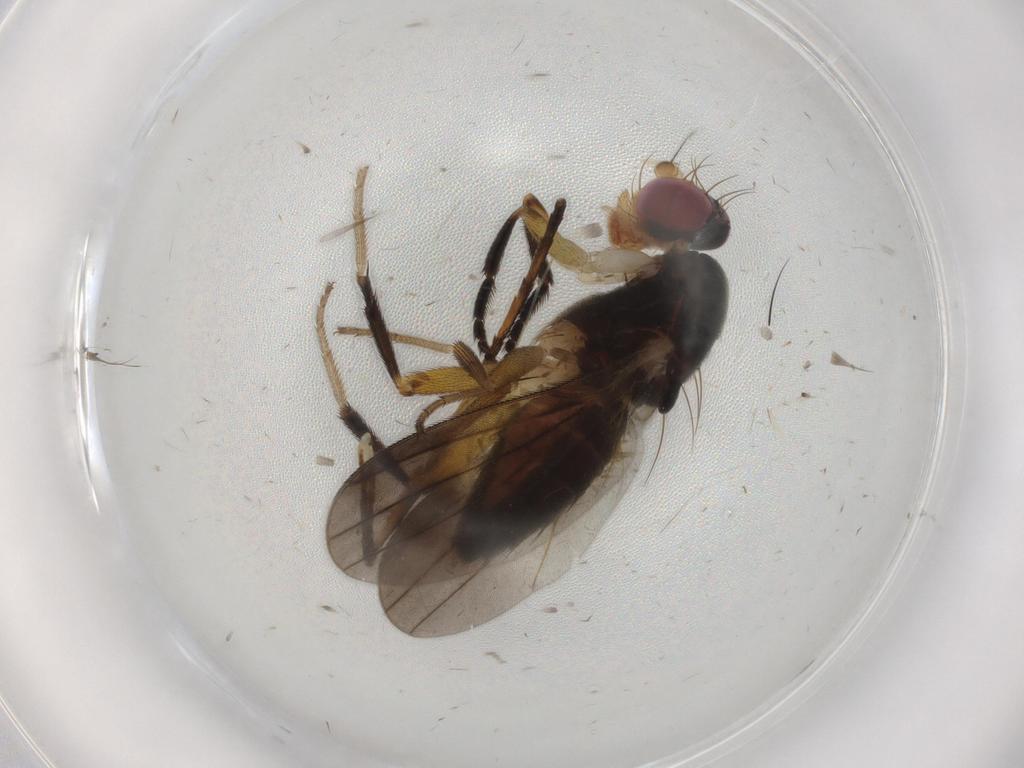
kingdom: Animalia
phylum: Arthropoda
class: Insecta
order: Diptera
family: Clusiidae
